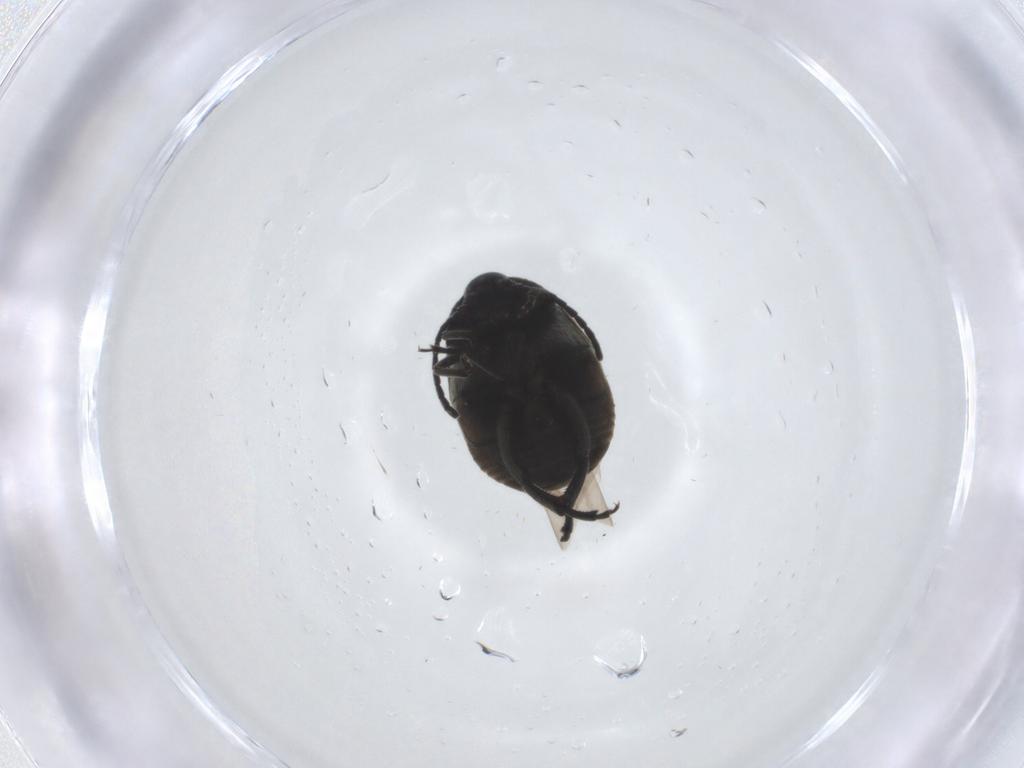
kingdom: Animalia
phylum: Arthropoda
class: Insecta
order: Coleoptera
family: Chrysomelidae
